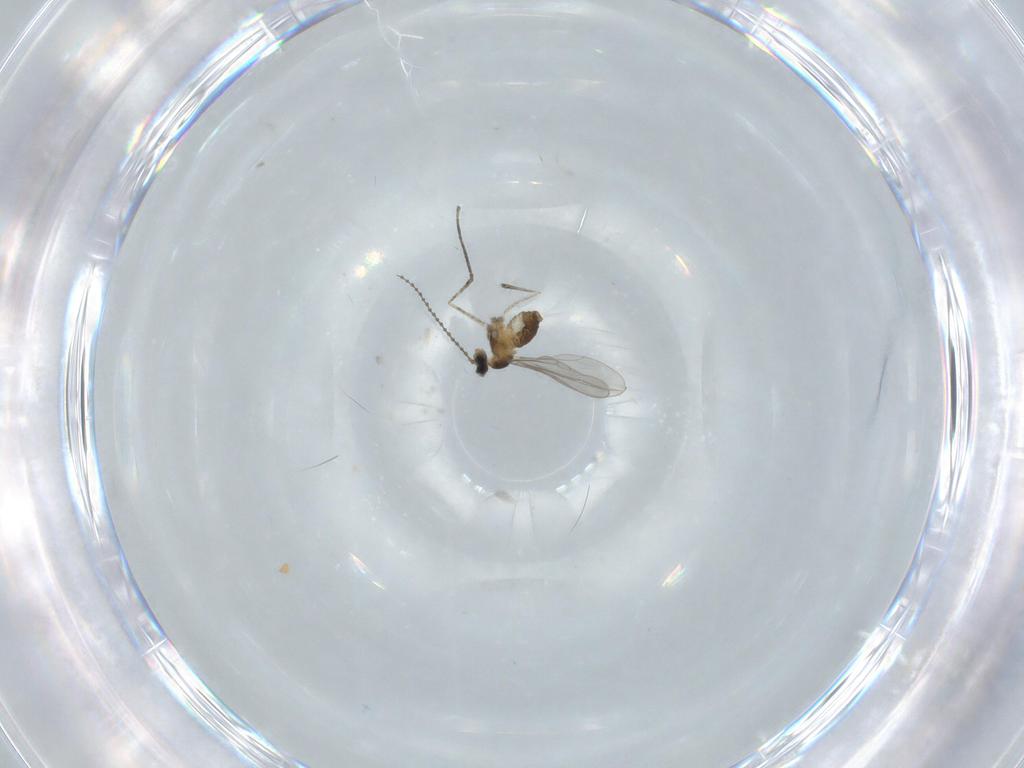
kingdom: Animalia
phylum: Arthropoda
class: Insecta
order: Diptera
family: Cecidomyiidae
